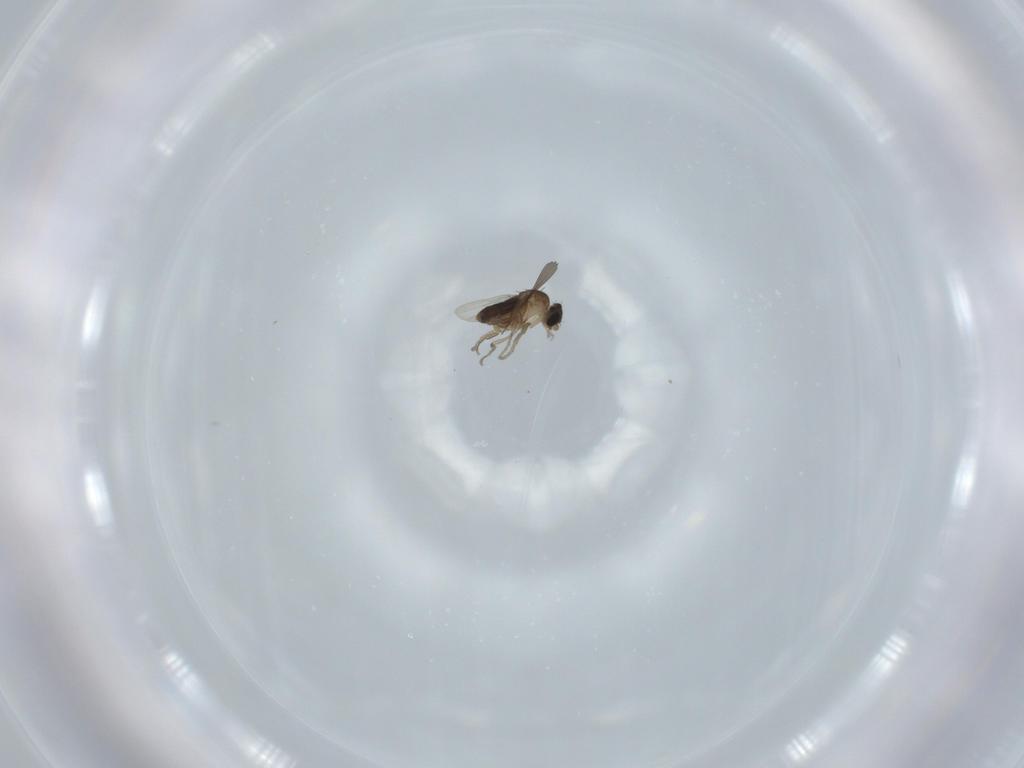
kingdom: Animalia
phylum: Arthropoda
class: Insecta
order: Diptera
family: Phoridae
